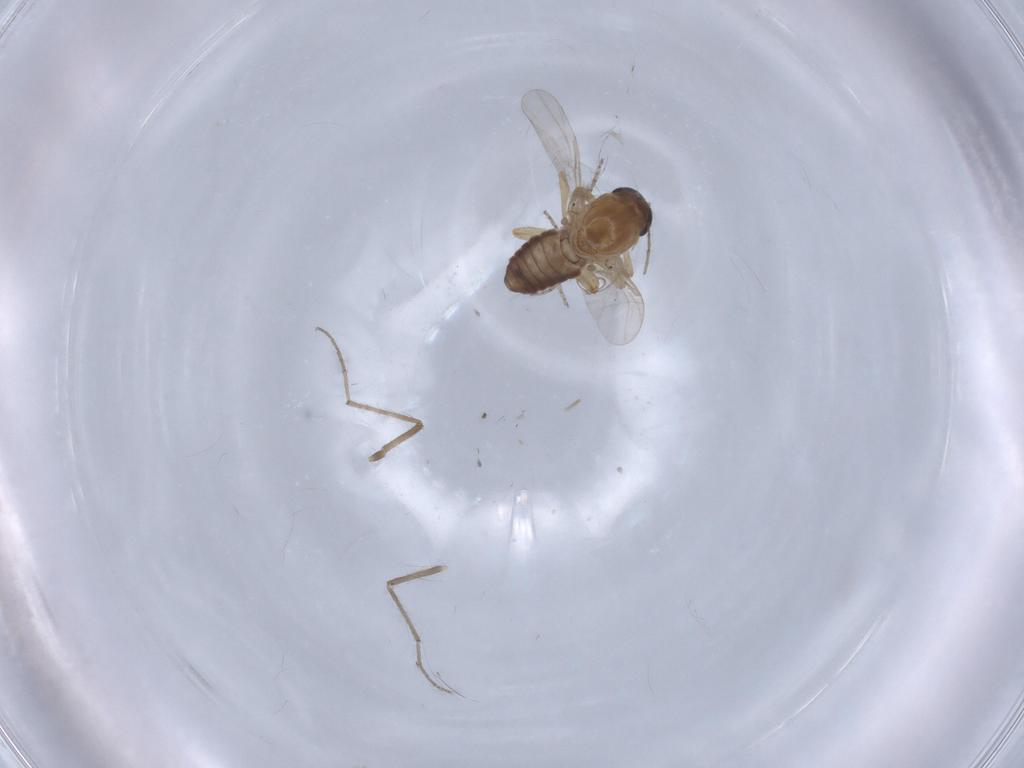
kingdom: Animalia
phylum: Arthropoda
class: Insecta
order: Diptera
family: Ceratopogonidae
